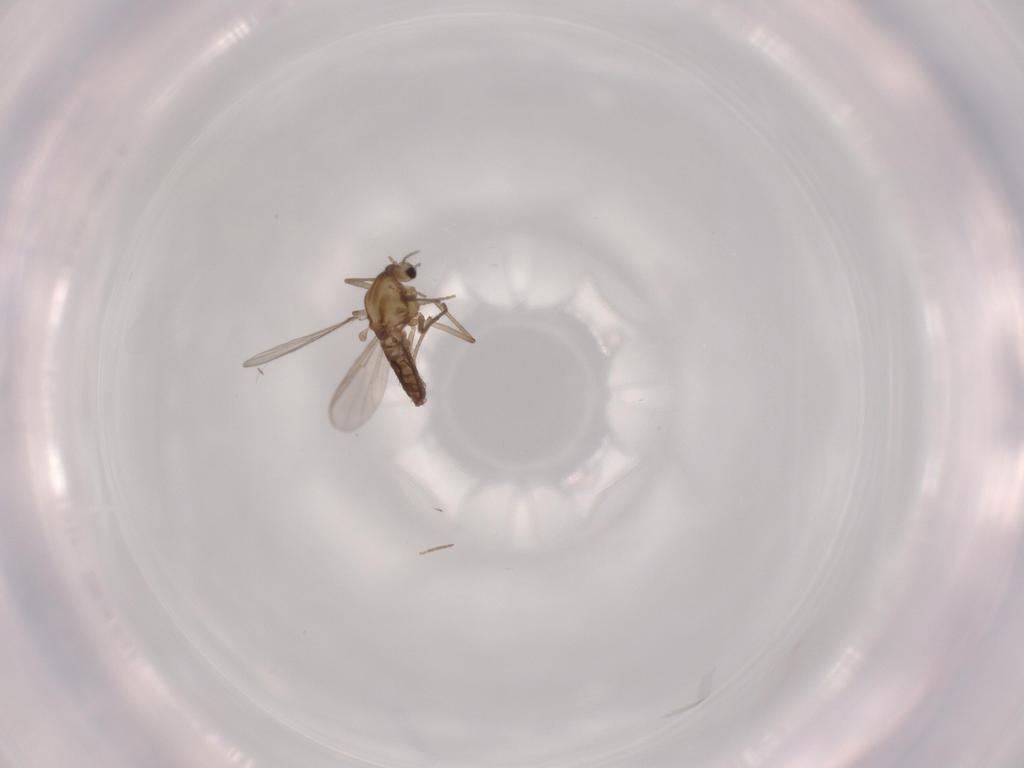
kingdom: Animalia
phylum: Arthropoda
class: Insecta
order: Diptera
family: Chironomidae
